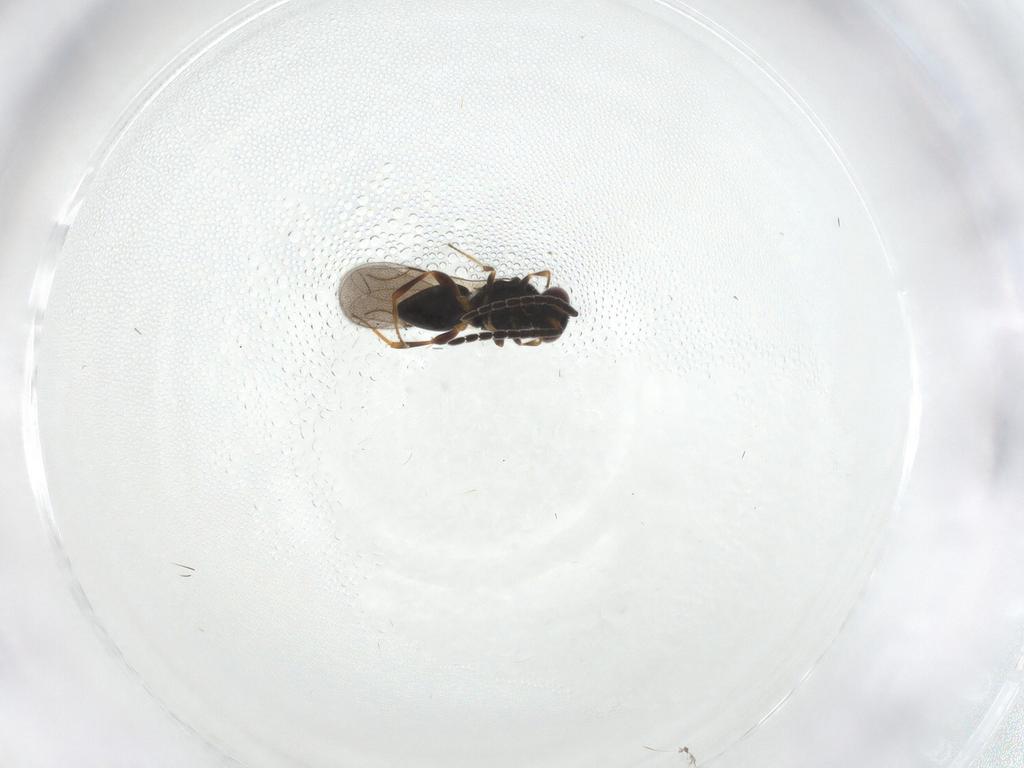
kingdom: Animalia
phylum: Arthropoda
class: Insecta
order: Hymenoptera
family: Ceraphronidae
